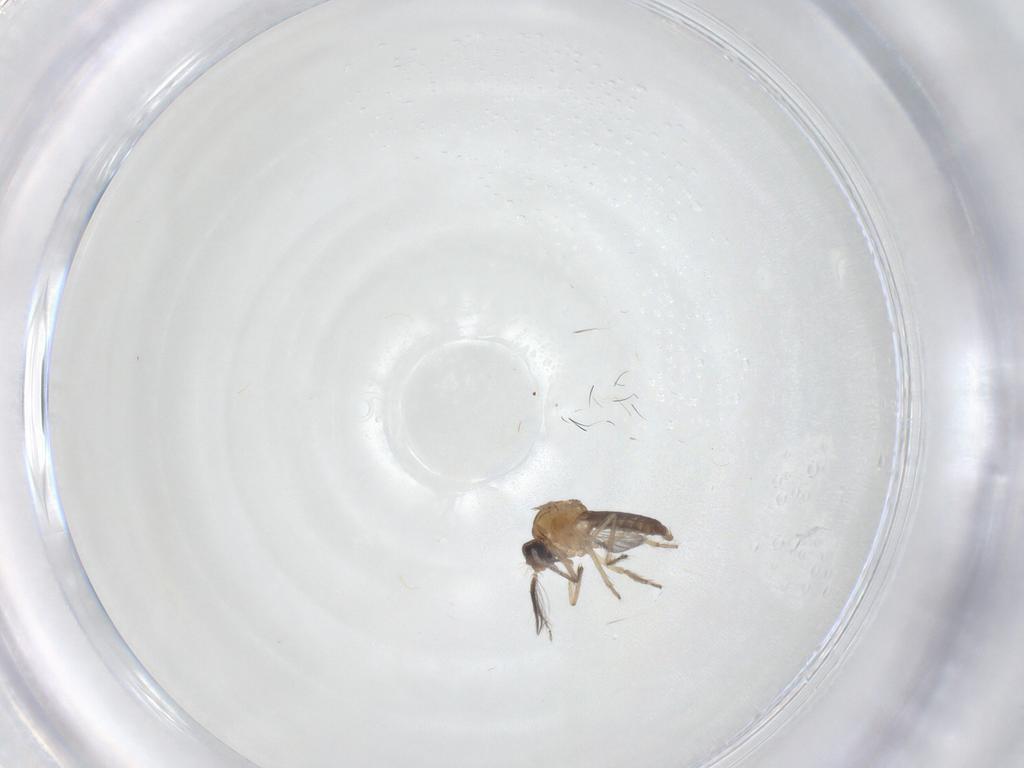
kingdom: Animalia
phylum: Arthropoda
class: Insecta
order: Diptera
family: Ceratopogonidae
